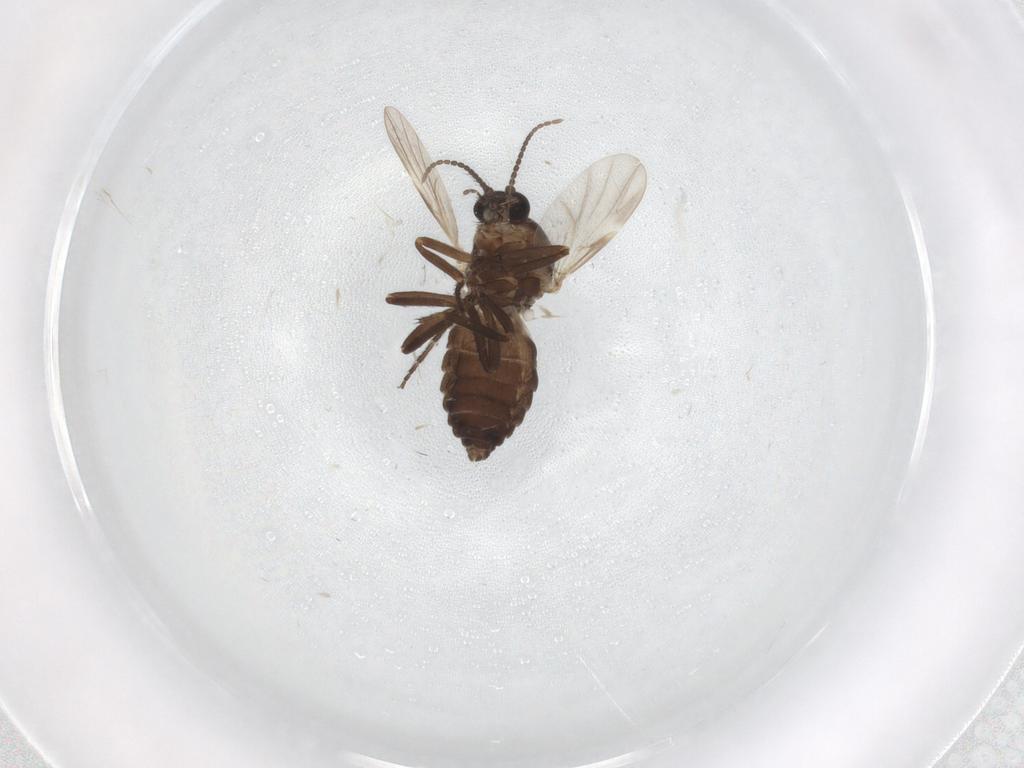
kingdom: Animalia
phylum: Arthropoda
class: Insecta
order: Diptera
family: Ceratopogonidae
